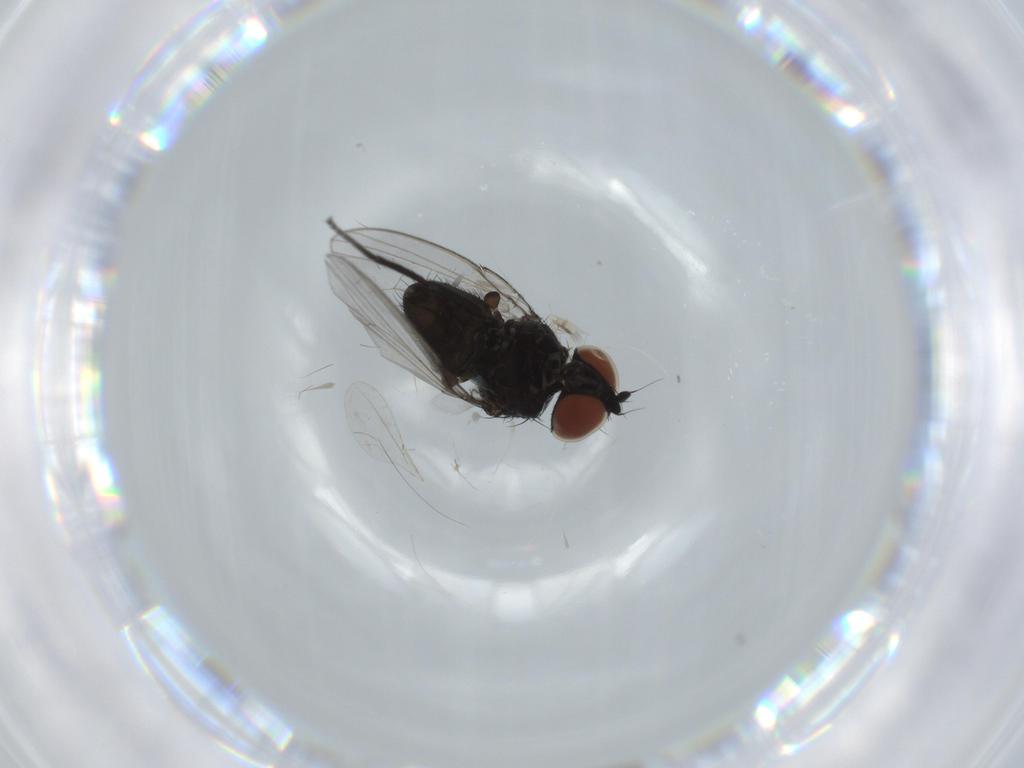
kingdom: Animalia
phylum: Arthropoda
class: Insecta
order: Diptera
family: Milichiidae
